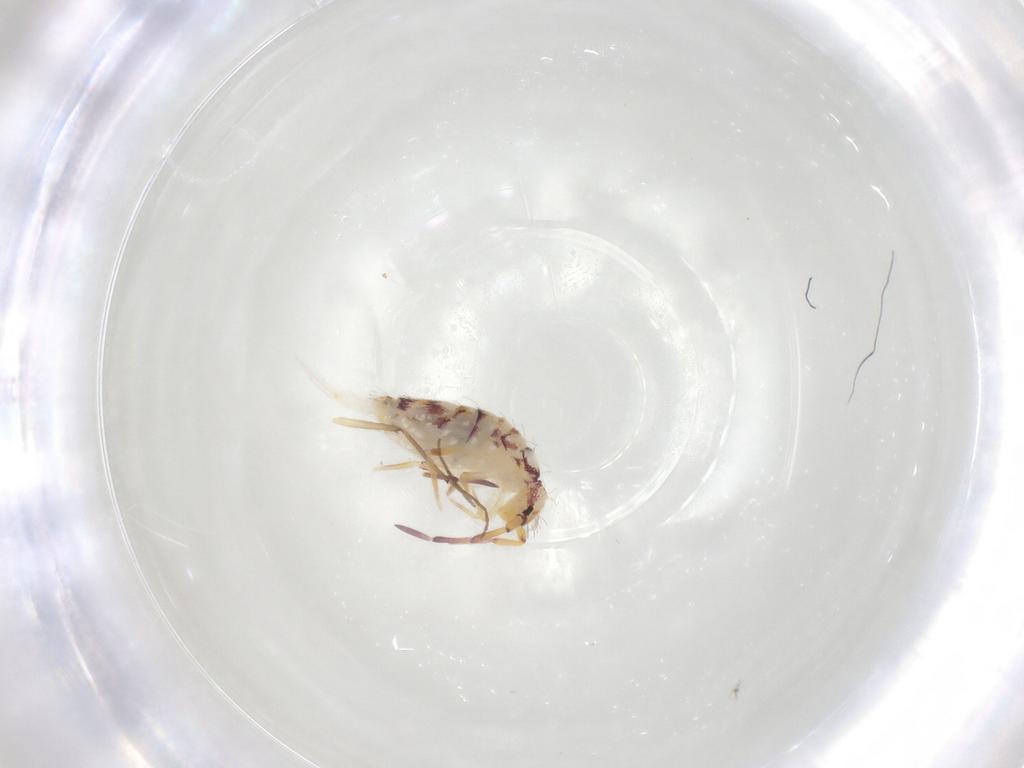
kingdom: Animalia
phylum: Arthropoda
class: Collembola
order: Entomobryomorpha
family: Entomobryidae
